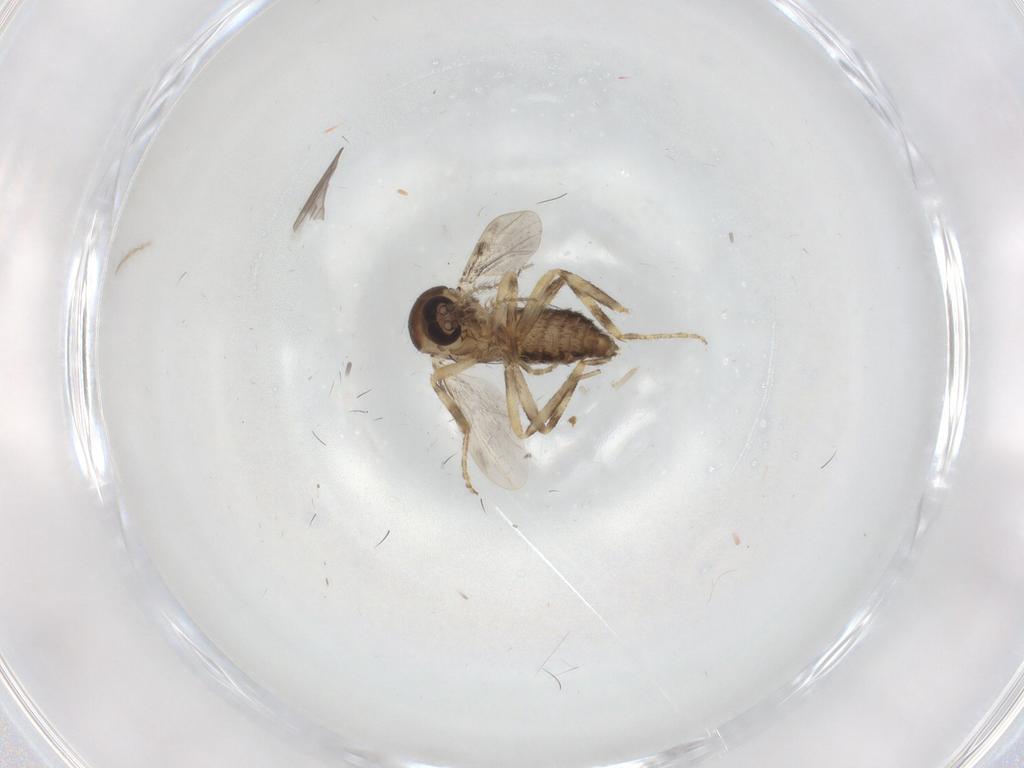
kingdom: Animalia
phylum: Arthropoda
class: Insecta
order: Diptera
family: Ceratopogonidae
